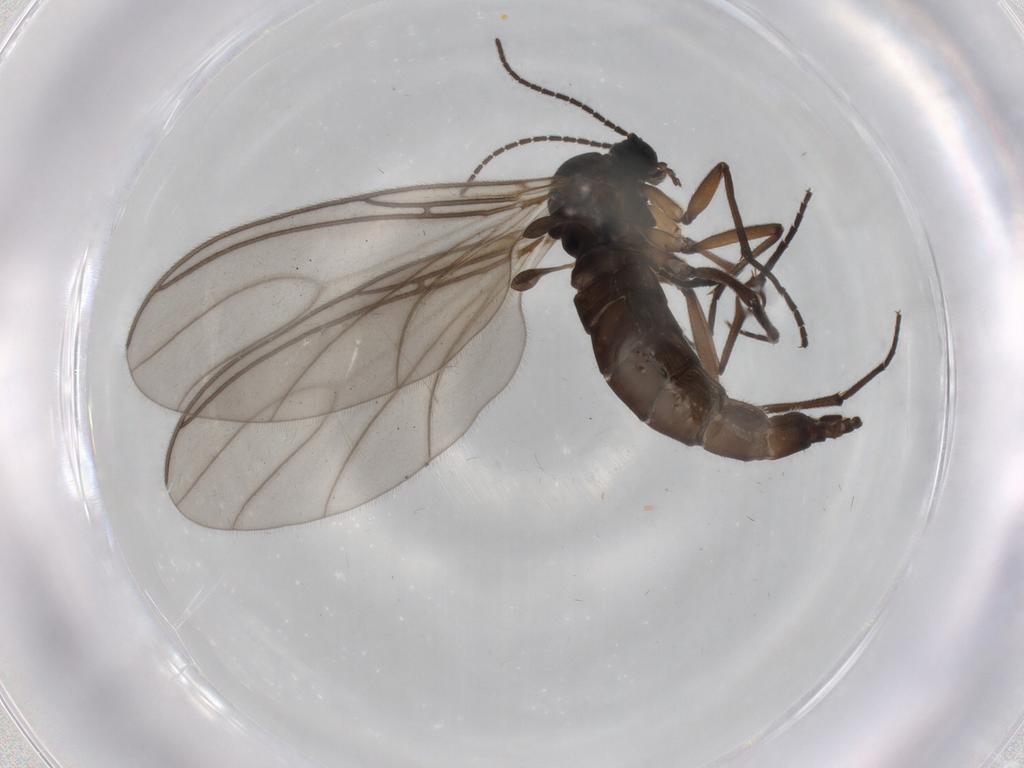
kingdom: Animalia
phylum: Arthropoda
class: Insecta
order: Diptera
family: Sciaridae
